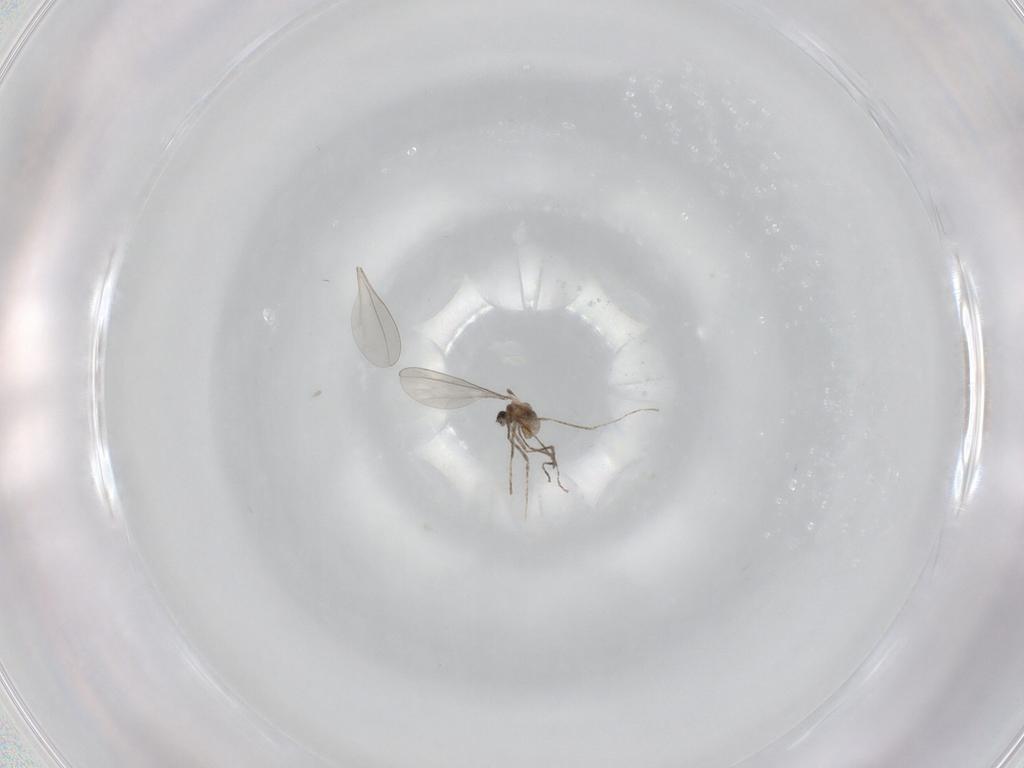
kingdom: Animalia
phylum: Arthropoda
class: Insecta
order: Diptera
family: Cecidomyiidae
